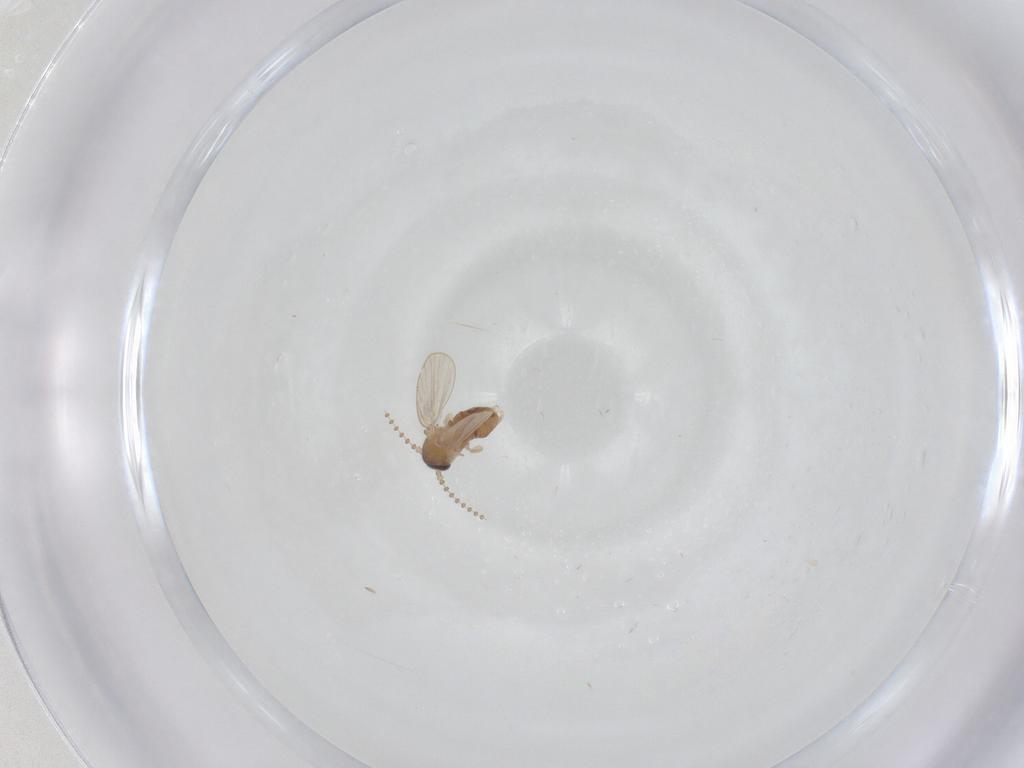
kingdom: Animalia
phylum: Arthropoda
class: Insecta
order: Diptera
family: Psychodidae
